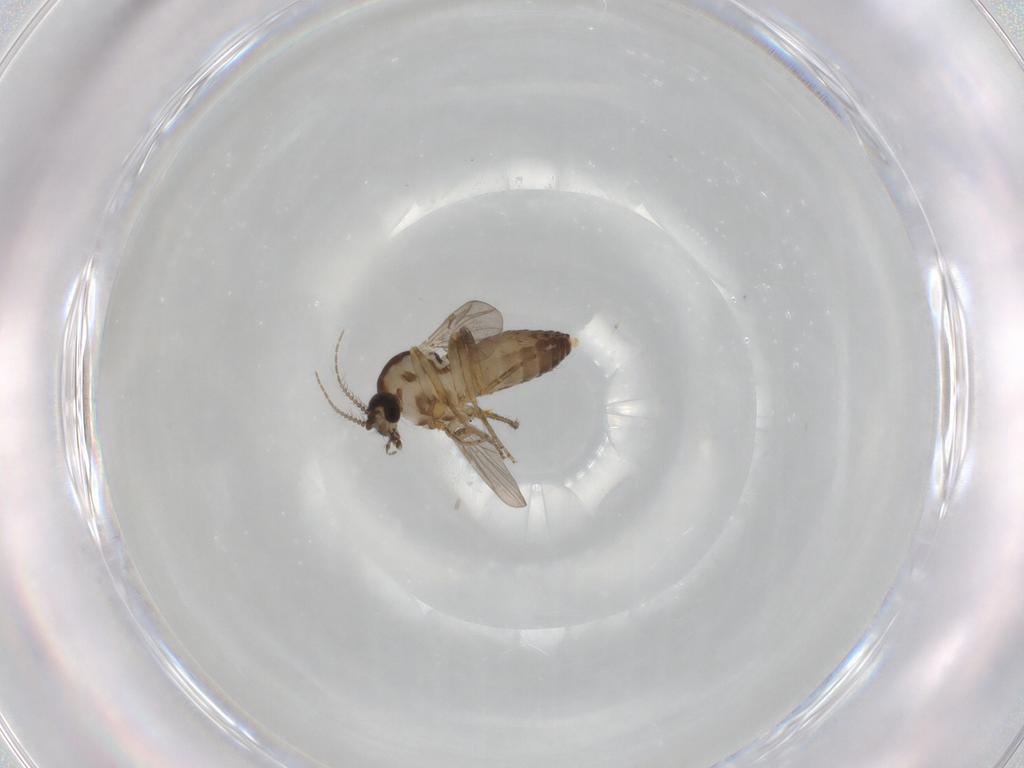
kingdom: Animalia
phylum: Arthropoda
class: Insecta
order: Diptera
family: Ceratopogonidae
